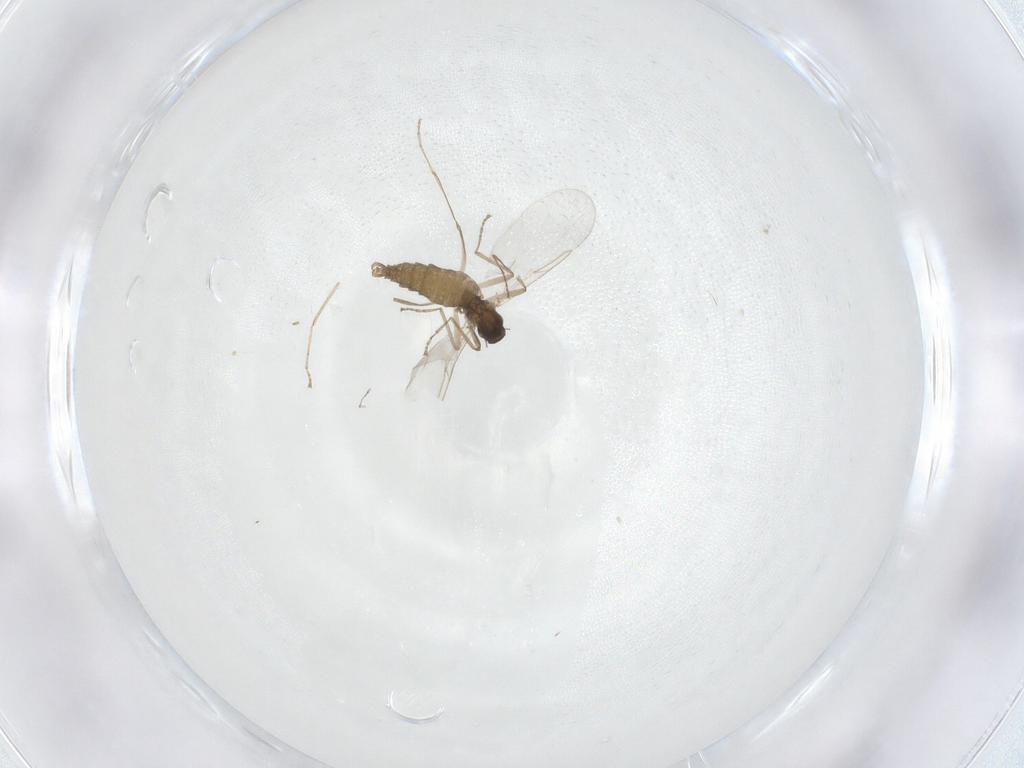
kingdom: Animalia
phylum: Arthropoda
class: Insecta
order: Diptera
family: Cecidomyiidae
